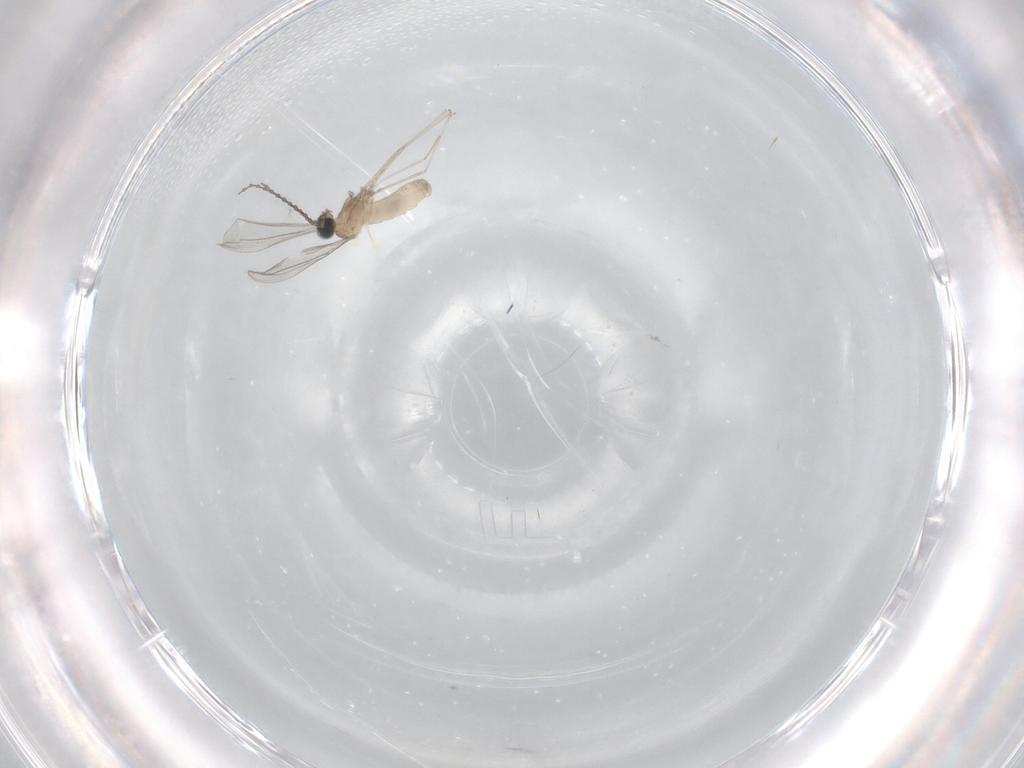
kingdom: Animalia
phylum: Arthropoda
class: Insecta
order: Diptera
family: Cecidomyiidae
